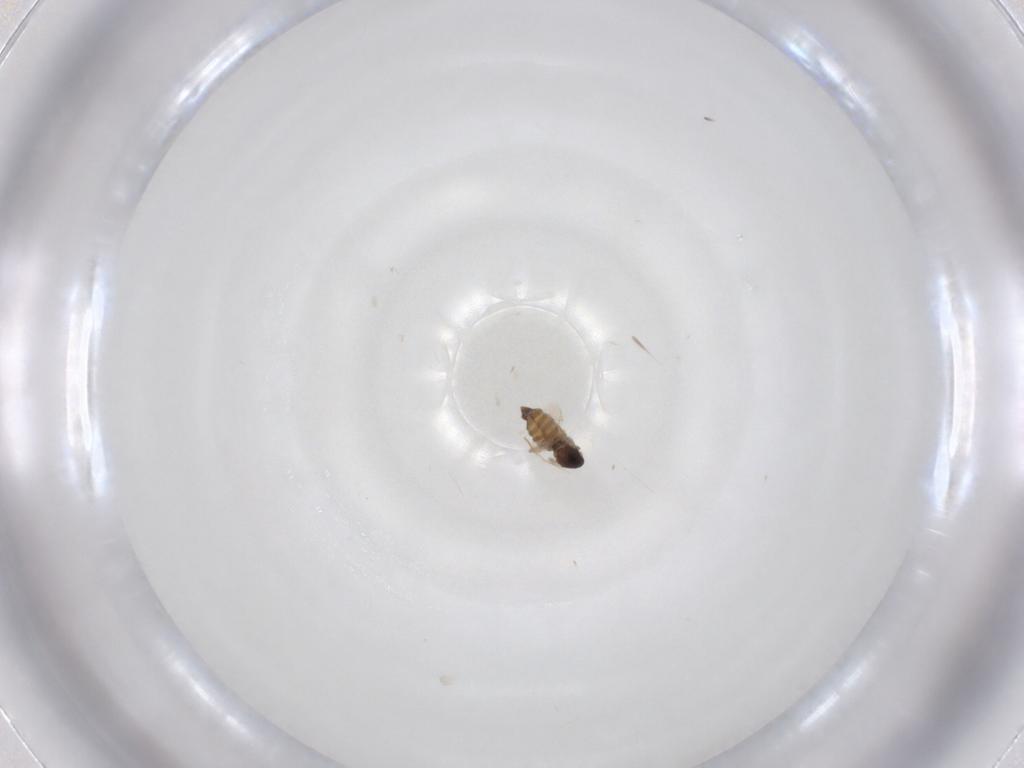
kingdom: Animalia
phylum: Arthropoda
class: Insecta
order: Diptera
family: Cecidomyiidae
